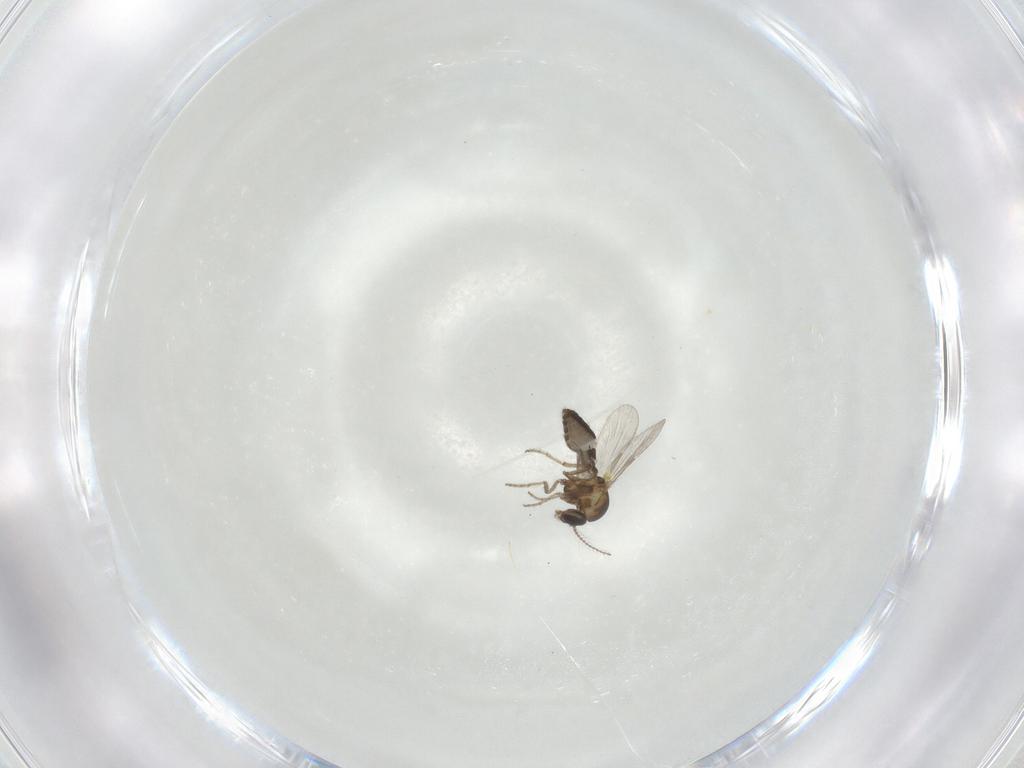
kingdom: Animalia
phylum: Arthropoda
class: Insecta
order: Diptera
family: Ceratopogonidae
